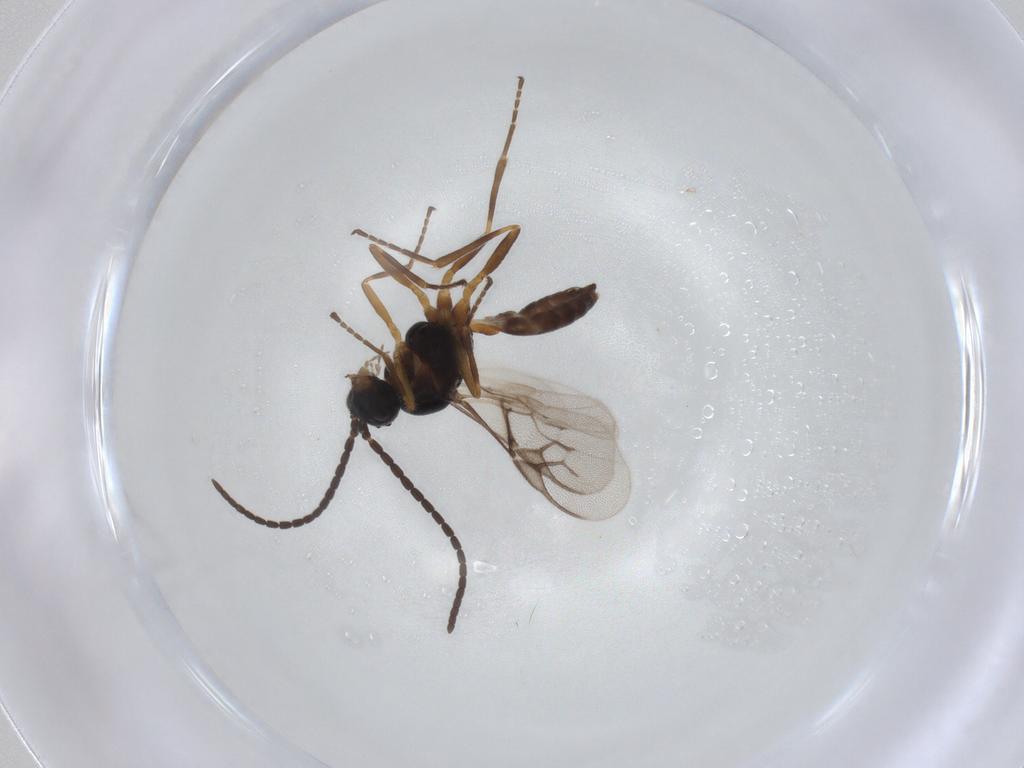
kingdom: Animalia
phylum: Arthropoda
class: Insecta
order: Hymenoptera
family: Braconidae
